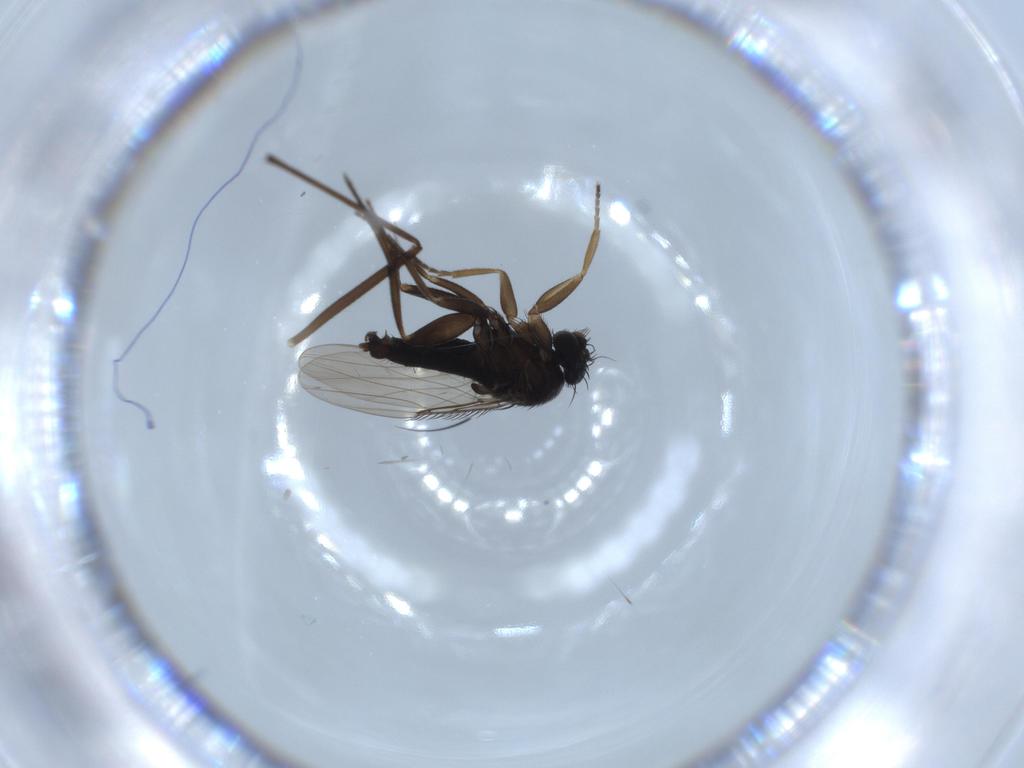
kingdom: Animalia
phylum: Arthropoda
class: Insecta
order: Diptera
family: Phoridae
